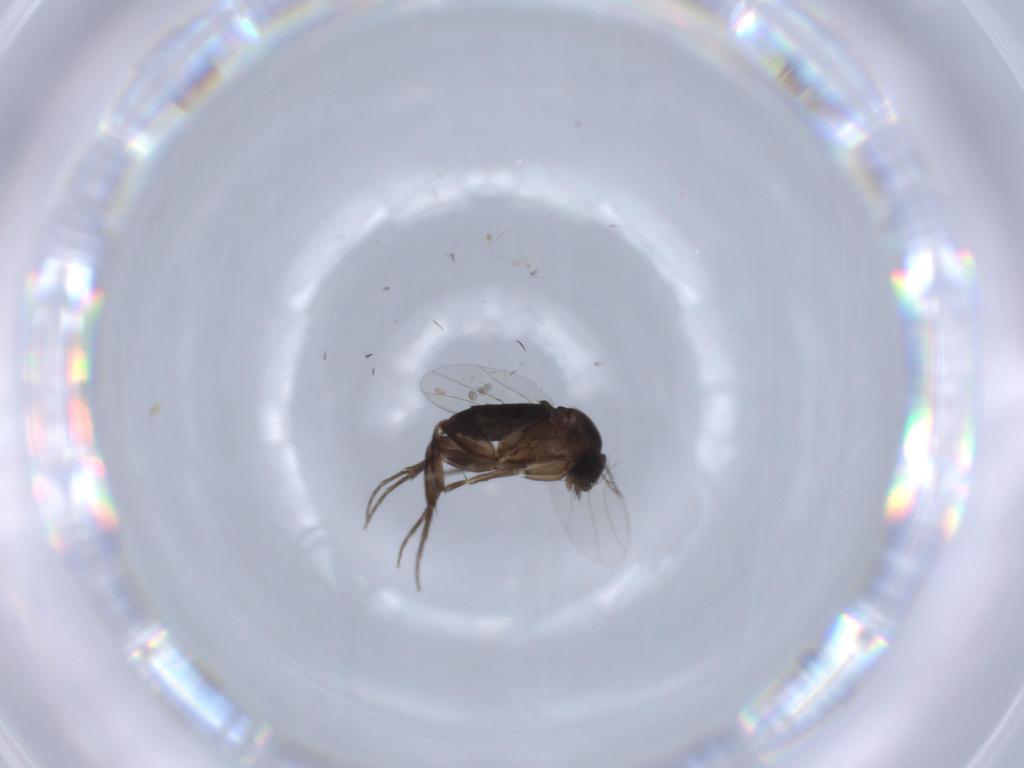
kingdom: Animalia
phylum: Arthropoda
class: Insecta
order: Diptera
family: Phoridae
